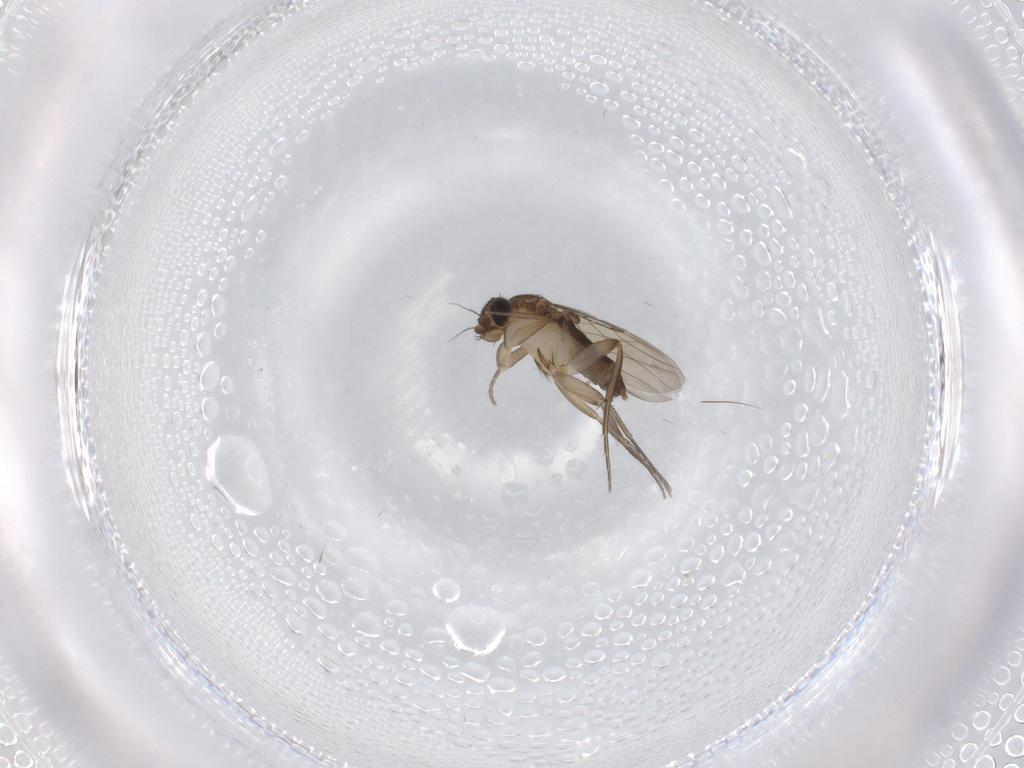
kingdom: Animalia
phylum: Arthropoda
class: Insecta
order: Diptera
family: Phoridae
